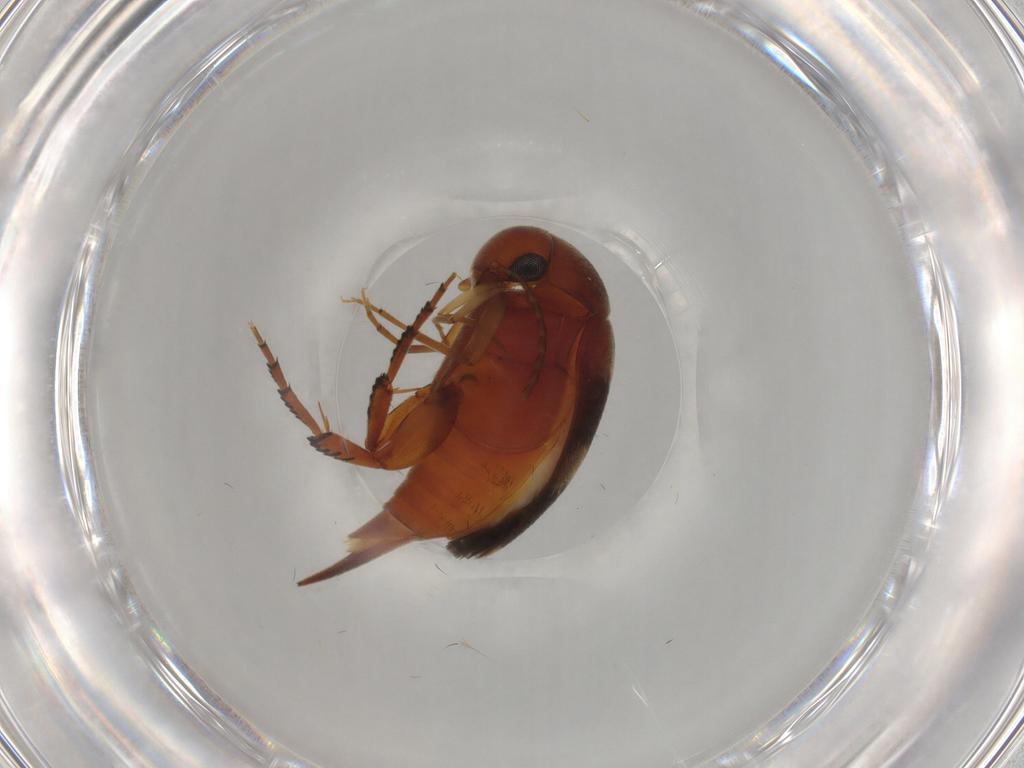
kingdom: Animalia
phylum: Arthropoda
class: Insecta
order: Coleoptera
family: Mordellidae
